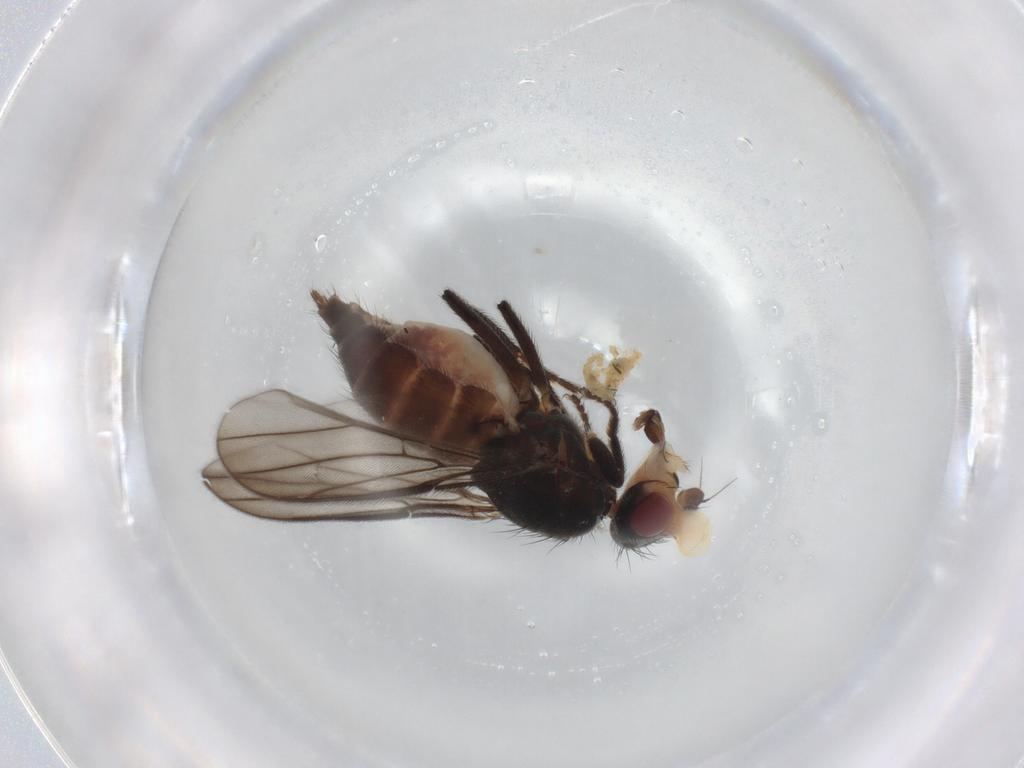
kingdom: Animalia
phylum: Arthropoda
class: Insecta
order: Diptera
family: Chloropidae
